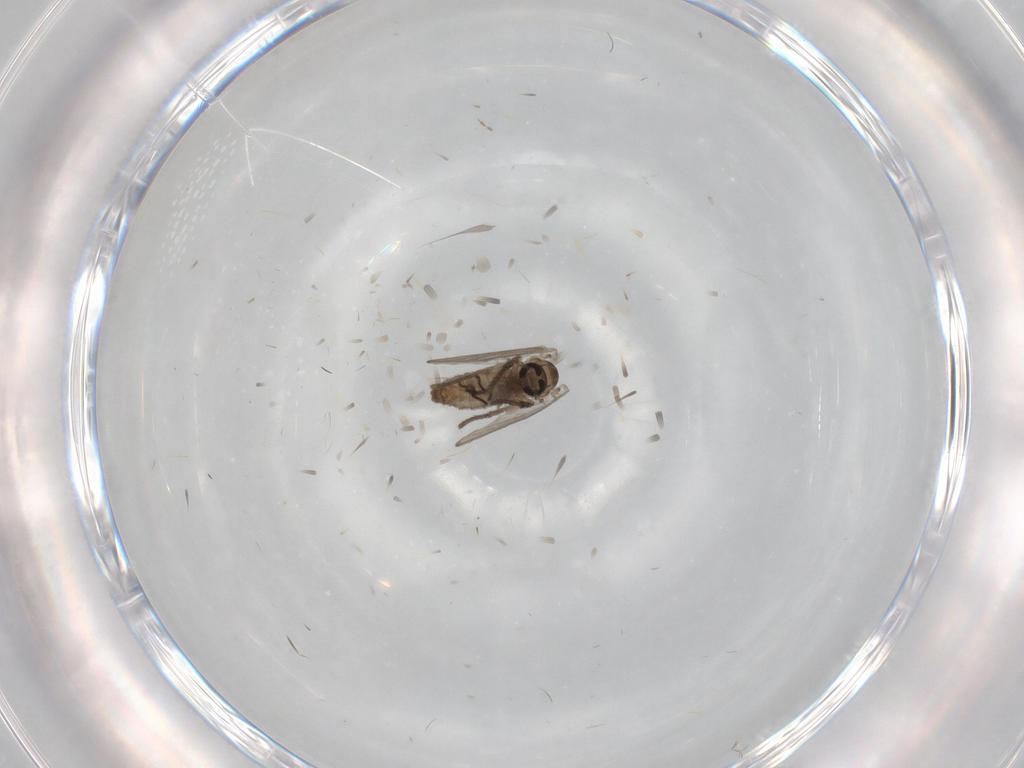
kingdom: Animalia
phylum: Arthropoda
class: Insecta
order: Diptera
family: Psychodidae
